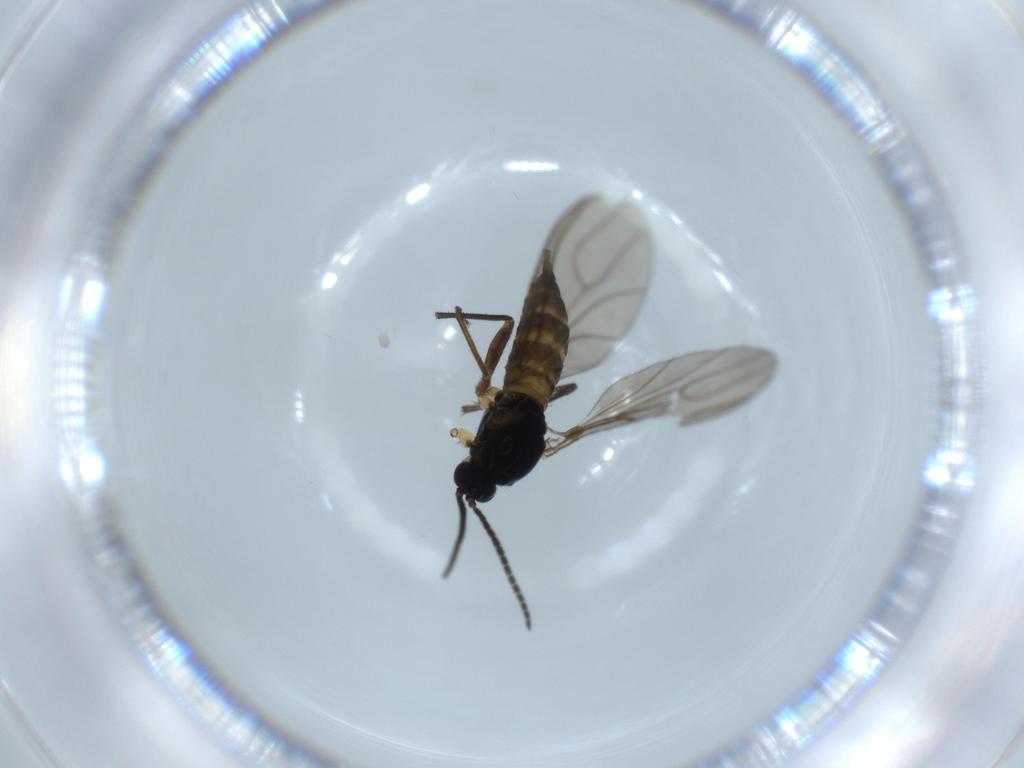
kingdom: Animalia
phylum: Arthropoda
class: Insecta
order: Diptera
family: Sciaridae
